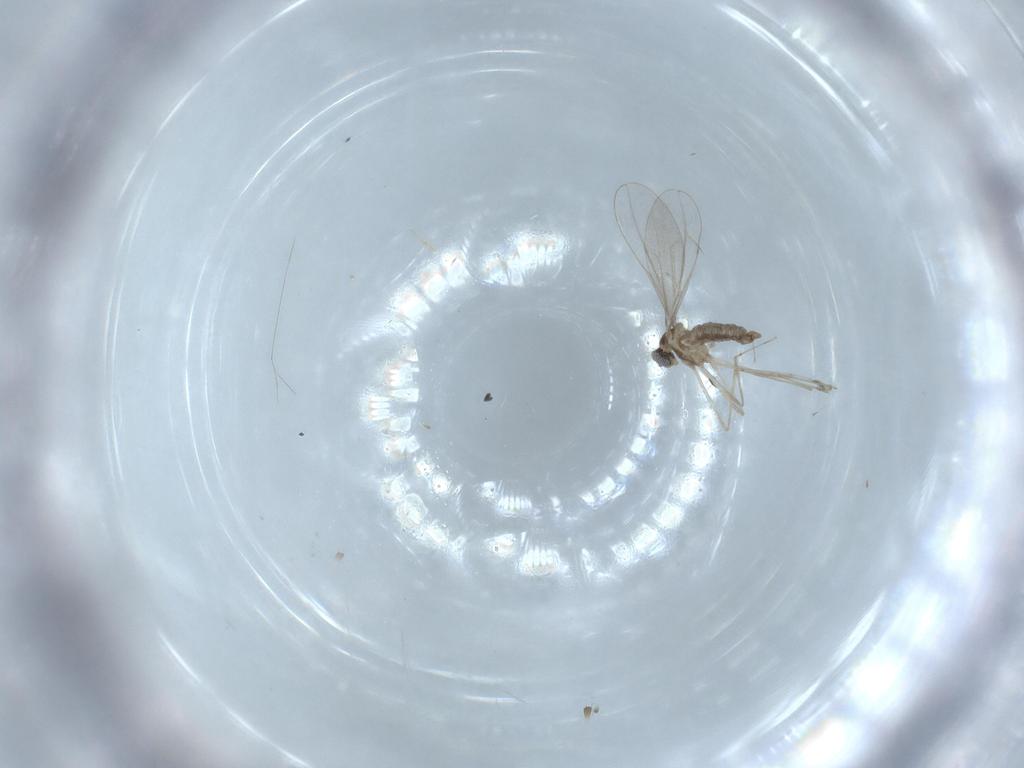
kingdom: Animalia
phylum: Arthropoda
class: Insecta
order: Diptera
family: Cecidomyiidae
